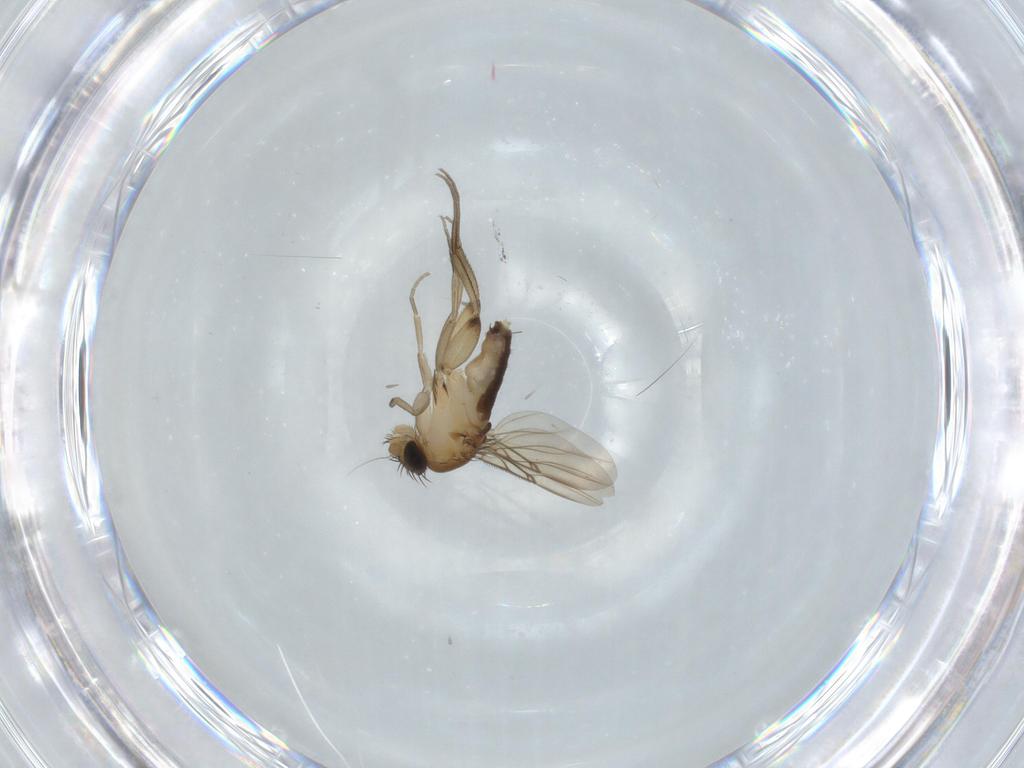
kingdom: Animalia
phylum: Arthropoda
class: Insecta
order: Diptera
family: Phoridae
